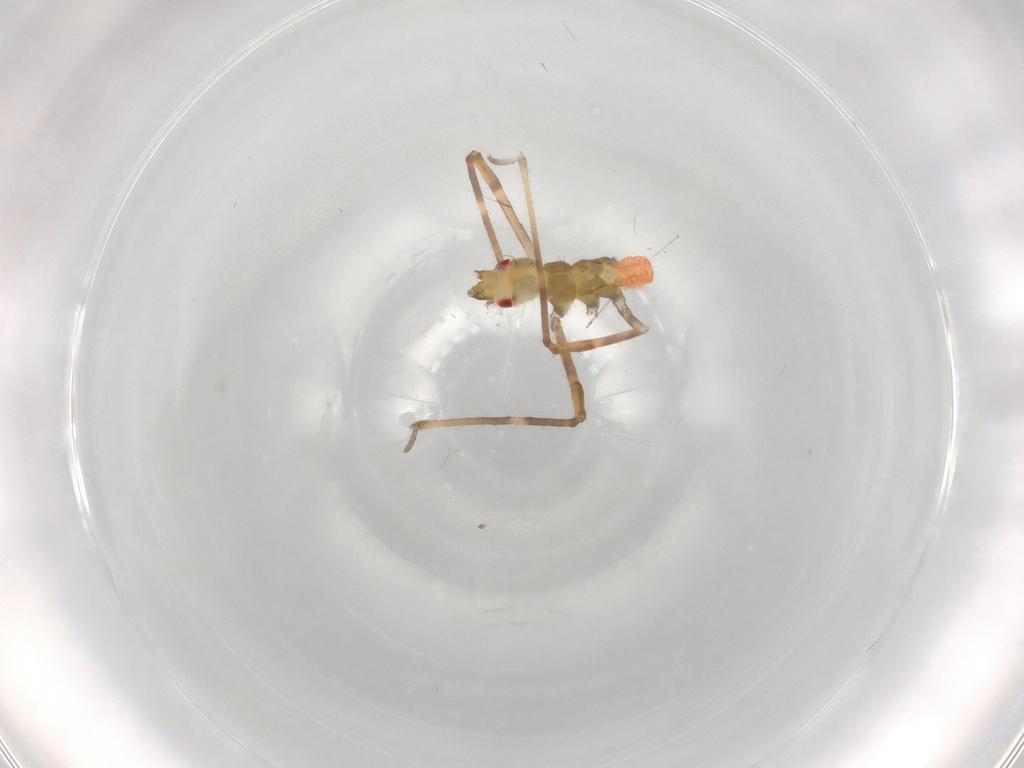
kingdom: Animalia
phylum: Arthropoda
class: Insecta
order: Hemiptera
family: Reduviidae
